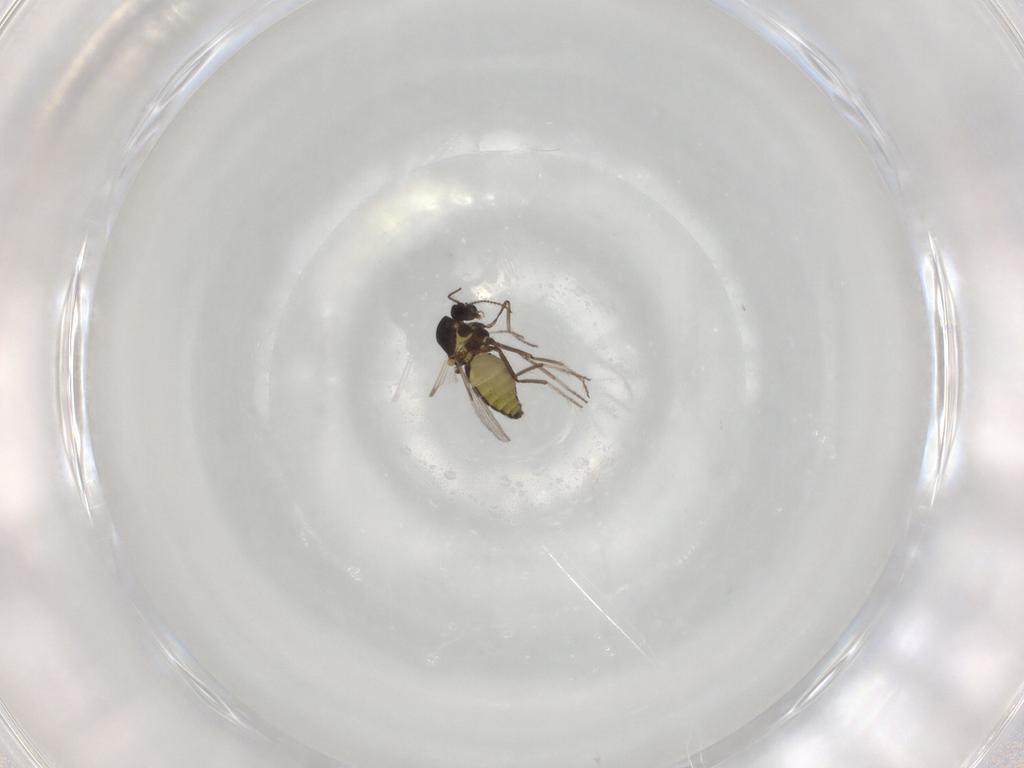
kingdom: Animalia
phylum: Arthropoda
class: Insecta
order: Diptera
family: Ceratopogonidae
